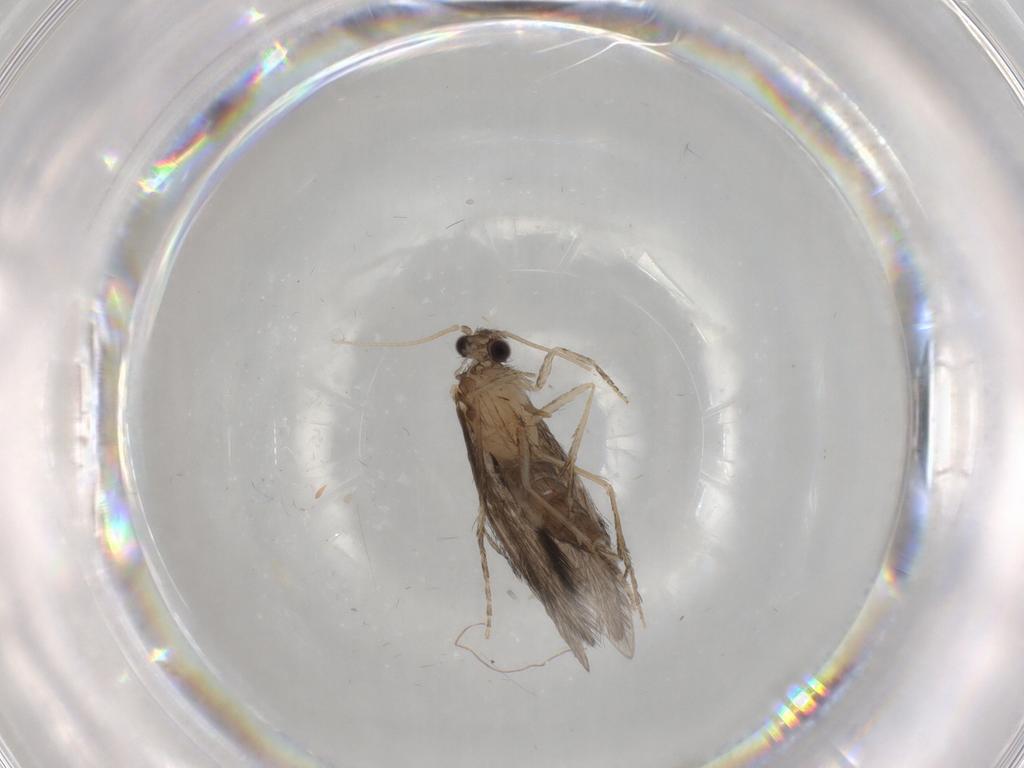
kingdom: Animalia
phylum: Arthropoda
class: Insecta
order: Trichoptera
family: Hydroptilidae
